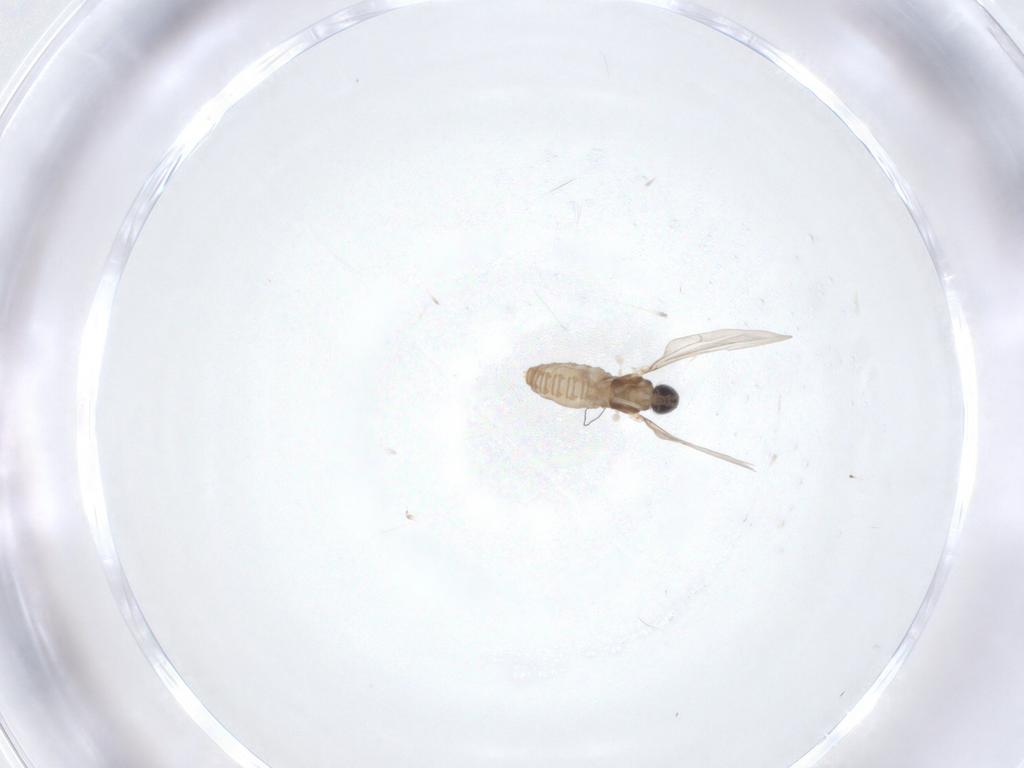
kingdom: Animalia
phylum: Arthropoda
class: Insecta
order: Diptera
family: Cecidomyiidae
